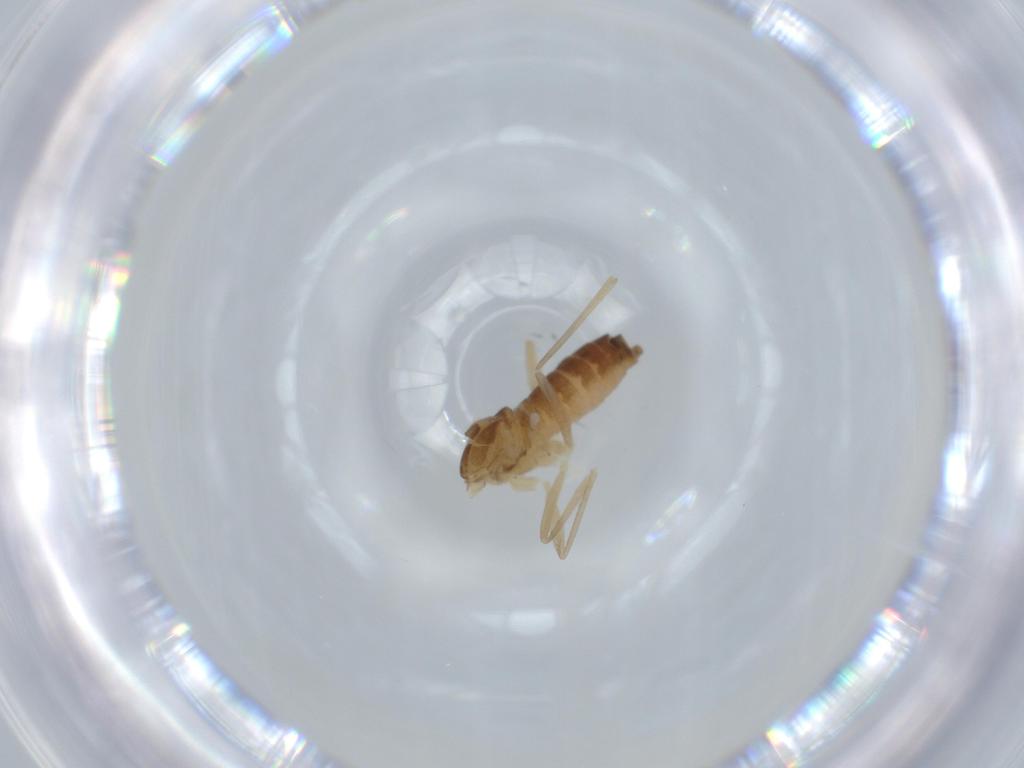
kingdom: Animalia
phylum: Arthropoda
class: Insecta
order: Diptera
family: Cecidomyiidae
